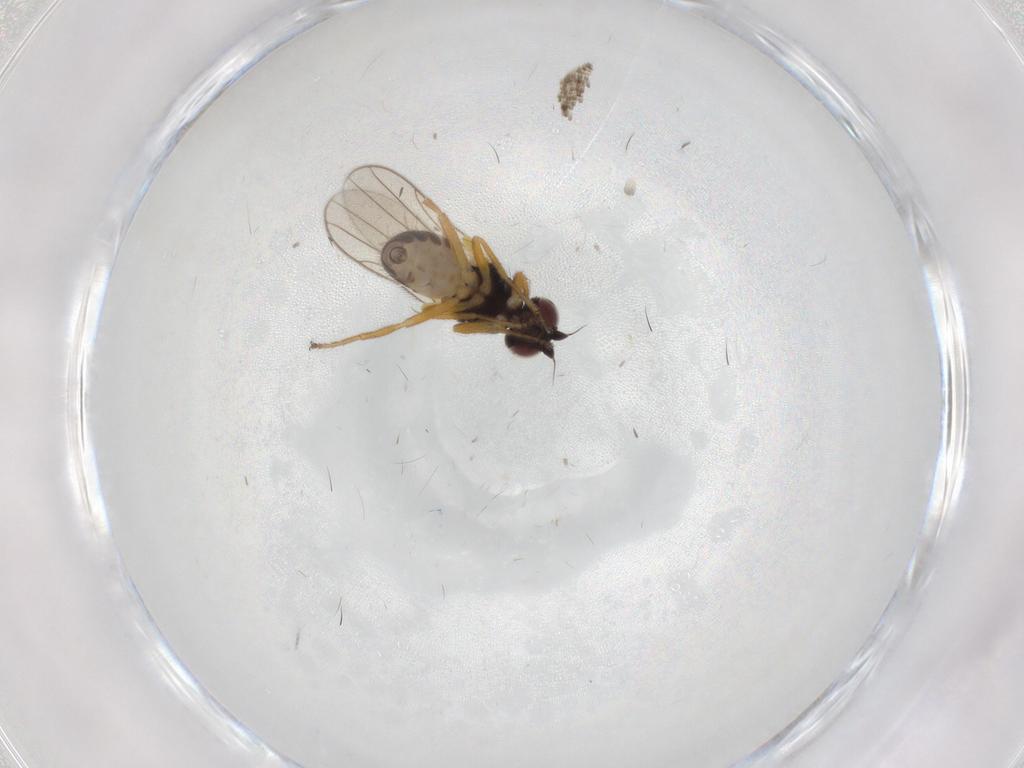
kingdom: Animalia
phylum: Arthropoda
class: Insecta
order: Diptera
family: Chloropidae
